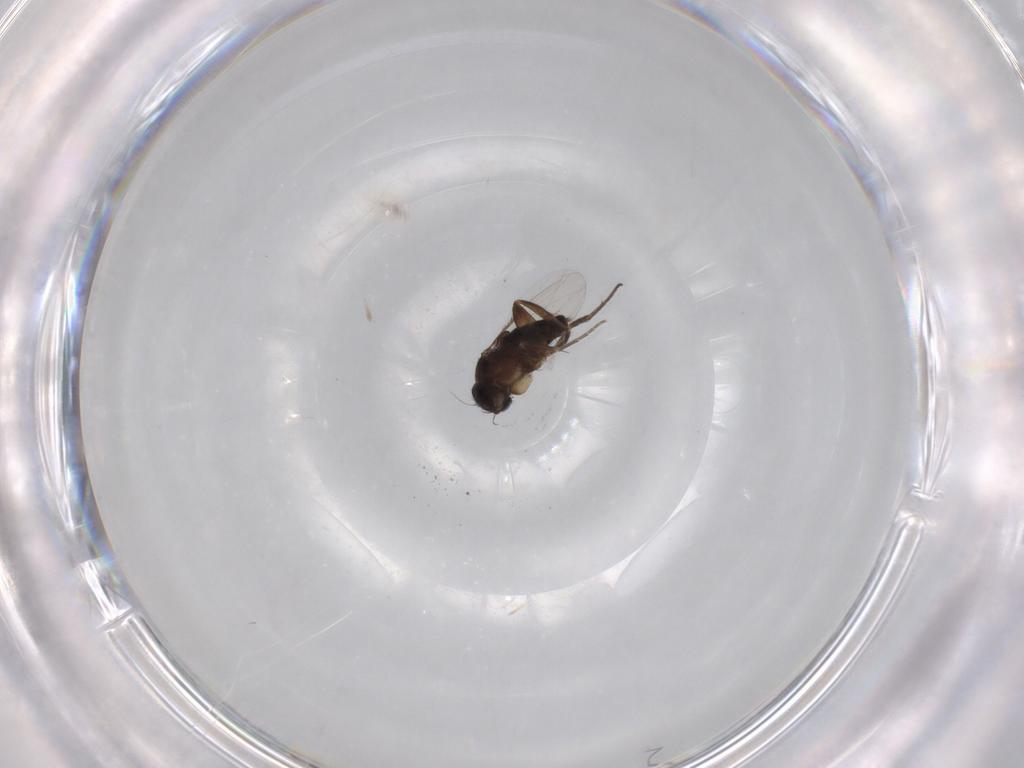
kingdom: Animalia
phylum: Arthropoda
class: Insecta
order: Diptera
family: Phoridae
